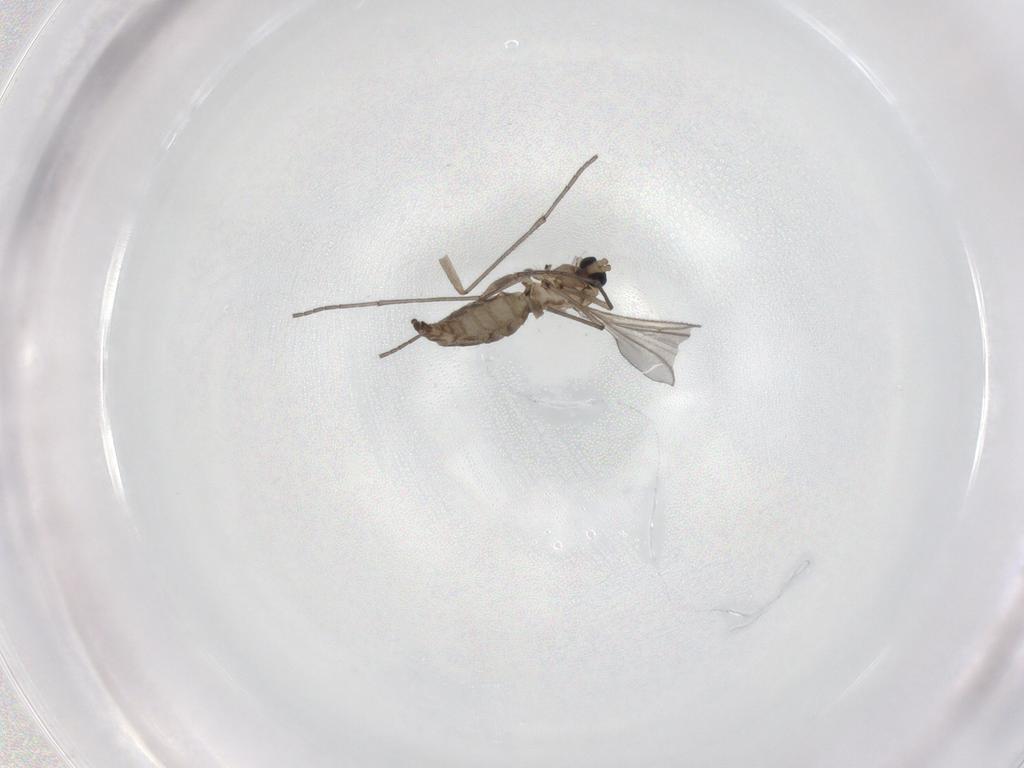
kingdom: Animalia
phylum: Arthropoda
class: Insecta
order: Diptera
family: Sciaridae
